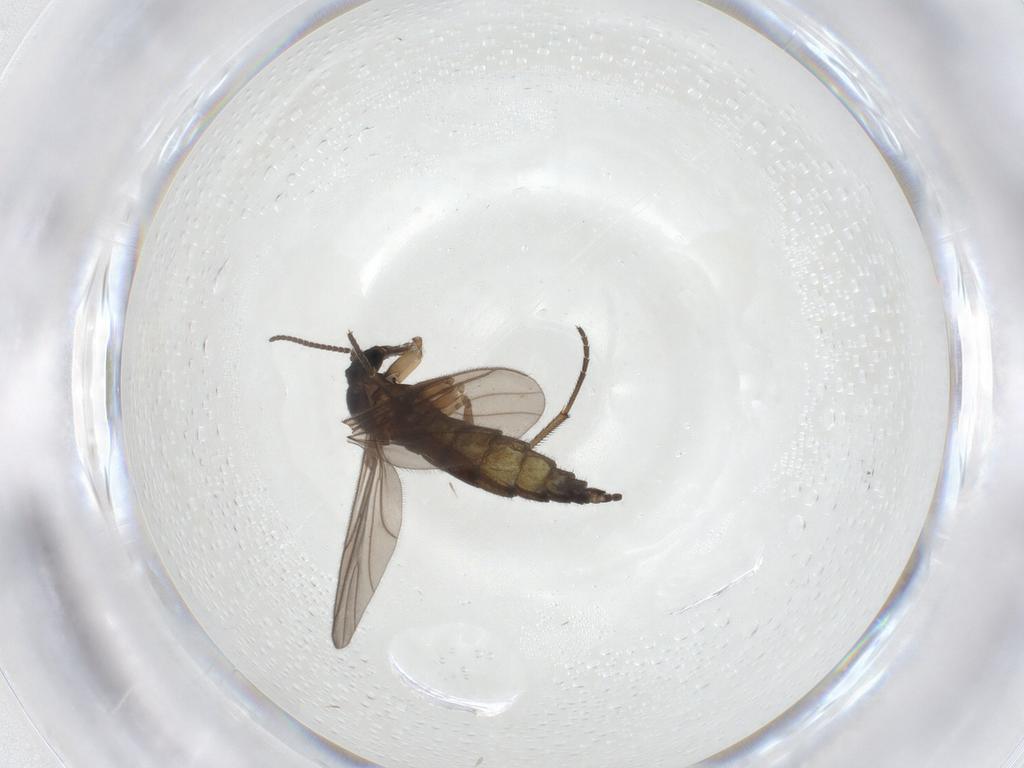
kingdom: Animalia
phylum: Arthropoda
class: Insecta
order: Diptera
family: Sciaridae
